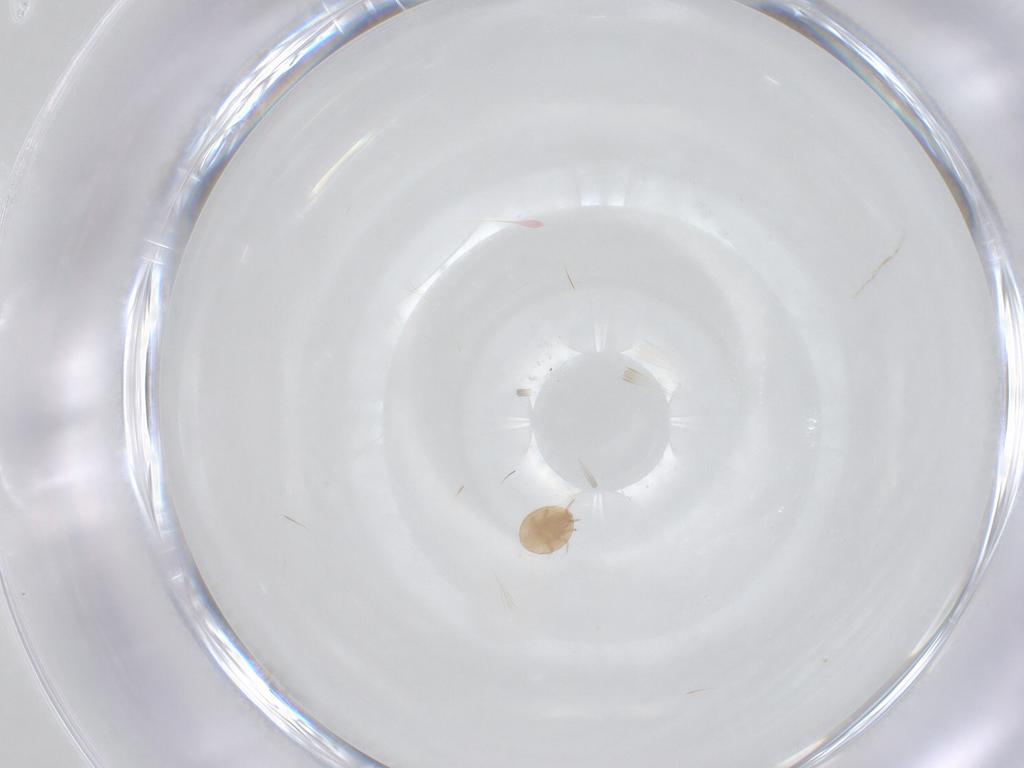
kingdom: Animalia
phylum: Arthropoda
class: Arachnida
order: Mesostigmata
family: Trematuridae
